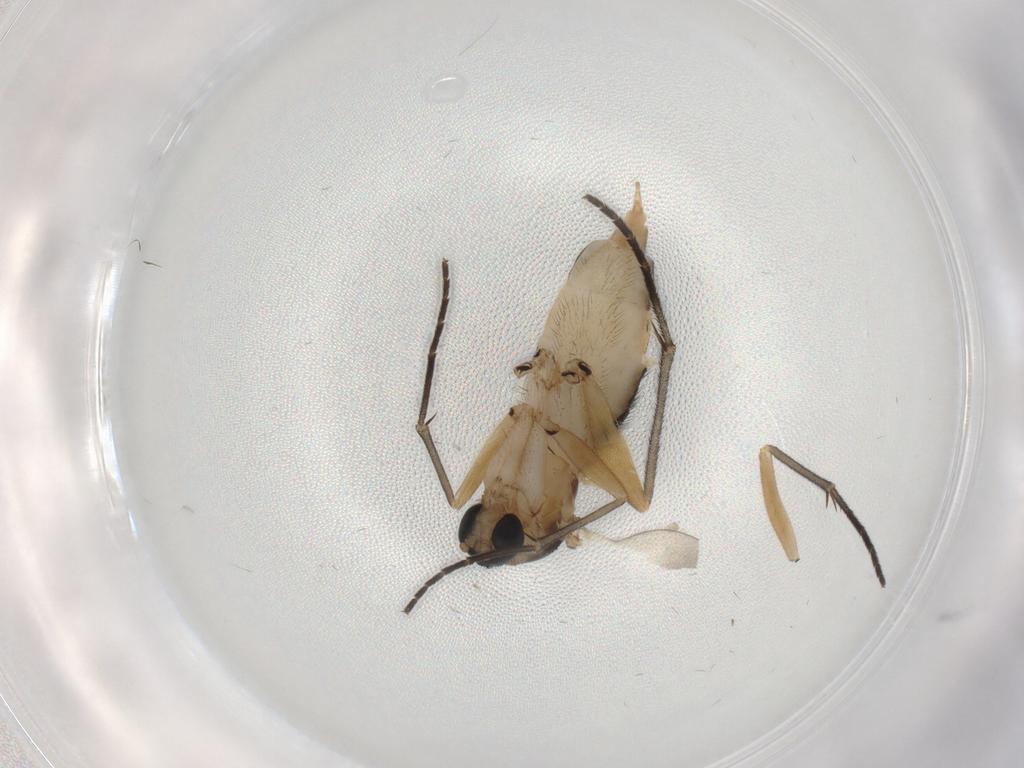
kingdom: Animalia
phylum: Arthropoda
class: Insecta
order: Diptera
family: Sciaridae
